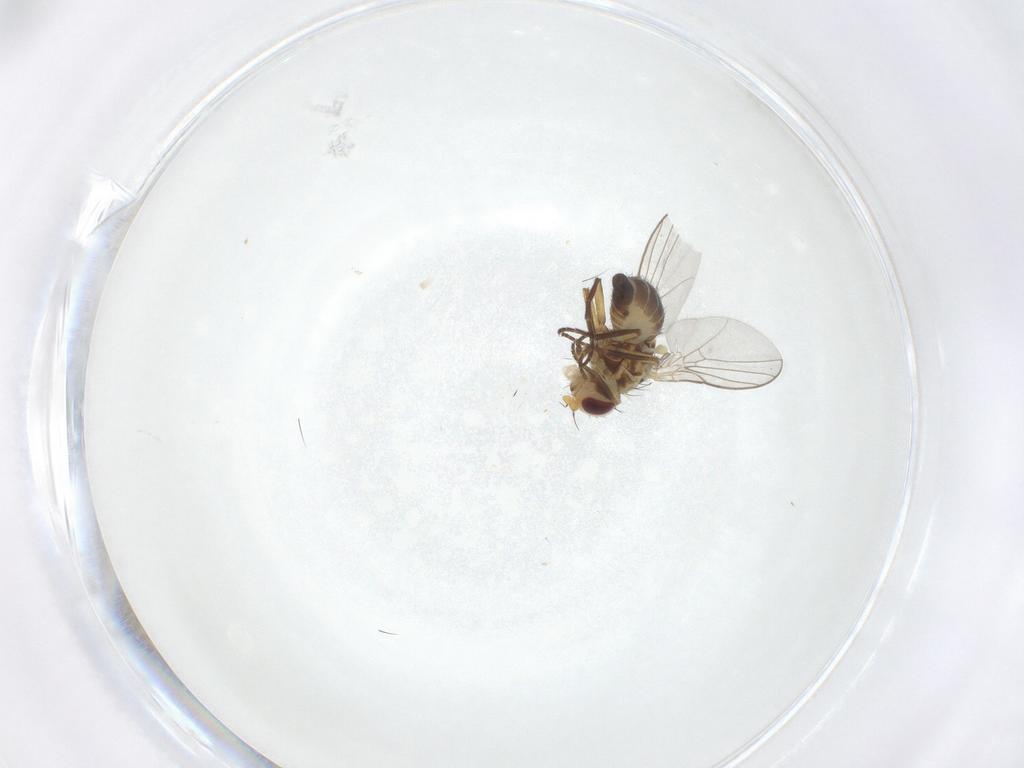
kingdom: Animalia
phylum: Arthropoda
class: Insecta
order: Diptera
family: Agromyzidae
